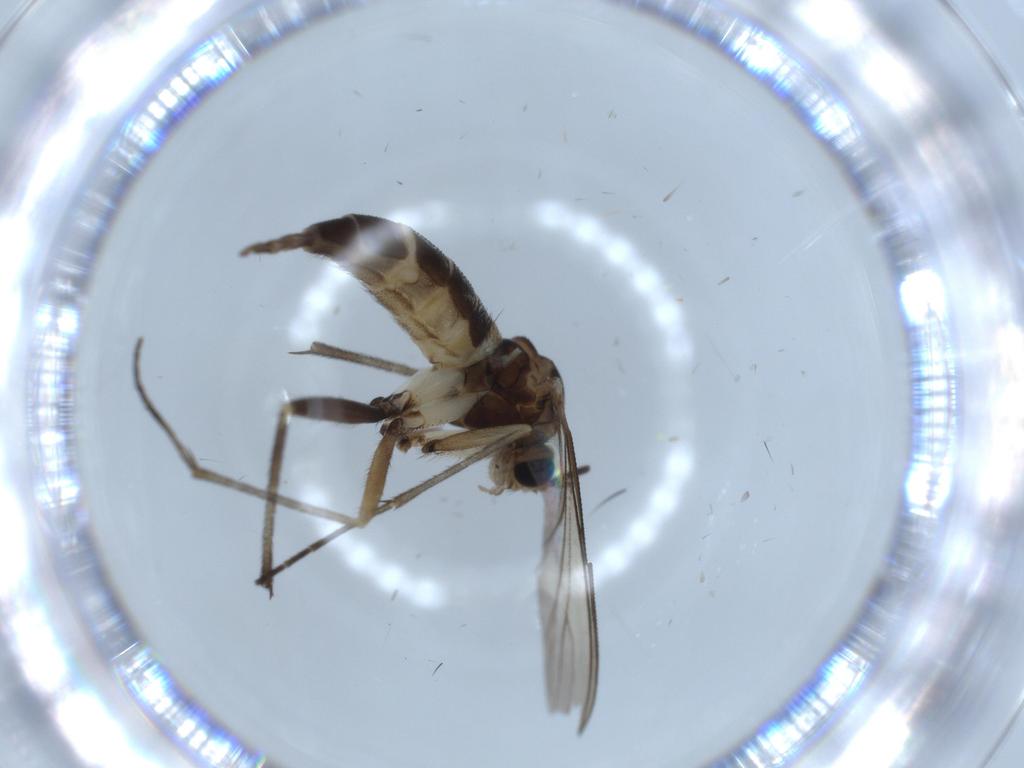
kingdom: Animalia
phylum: Arthropoda
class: Insecta
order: Diptera
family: Sciaridae
